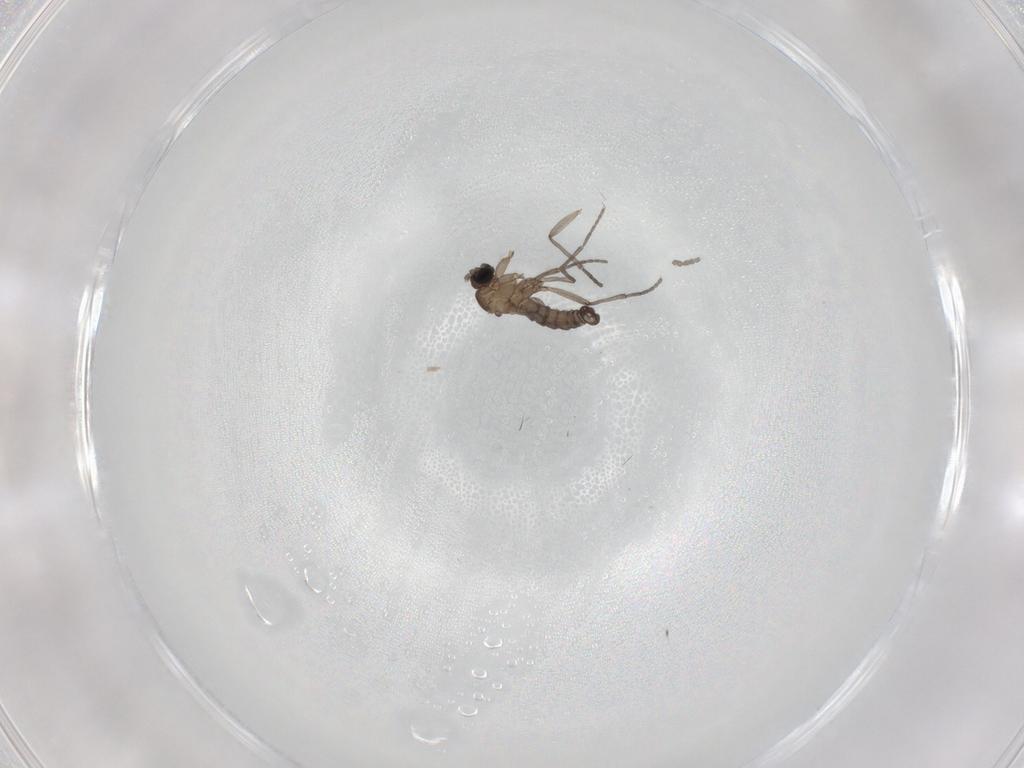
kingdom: Animalia
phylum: Arthropoda
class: Insecta
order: Diptera
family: Sciaridae
